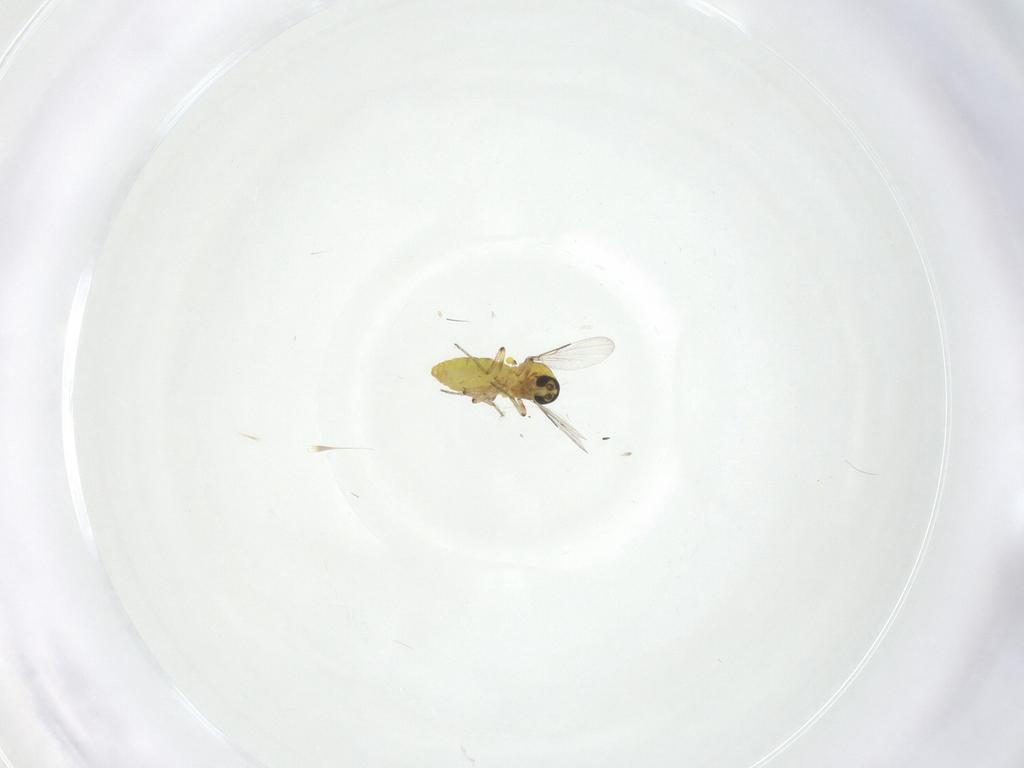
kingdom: Animalia
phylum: Arthropoda
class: Insecta
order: Diptera
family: Ceratopogonidae
